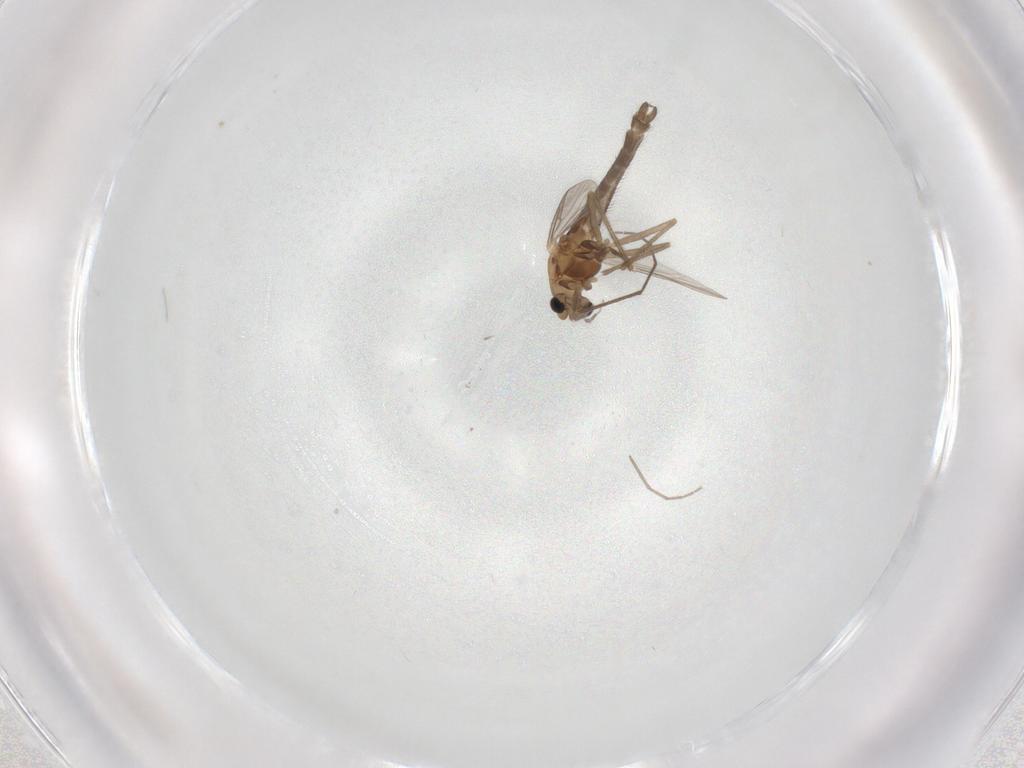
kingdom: Animalia
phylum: Arthropoda
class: Insecta
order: Diptera
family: Chironomidae
